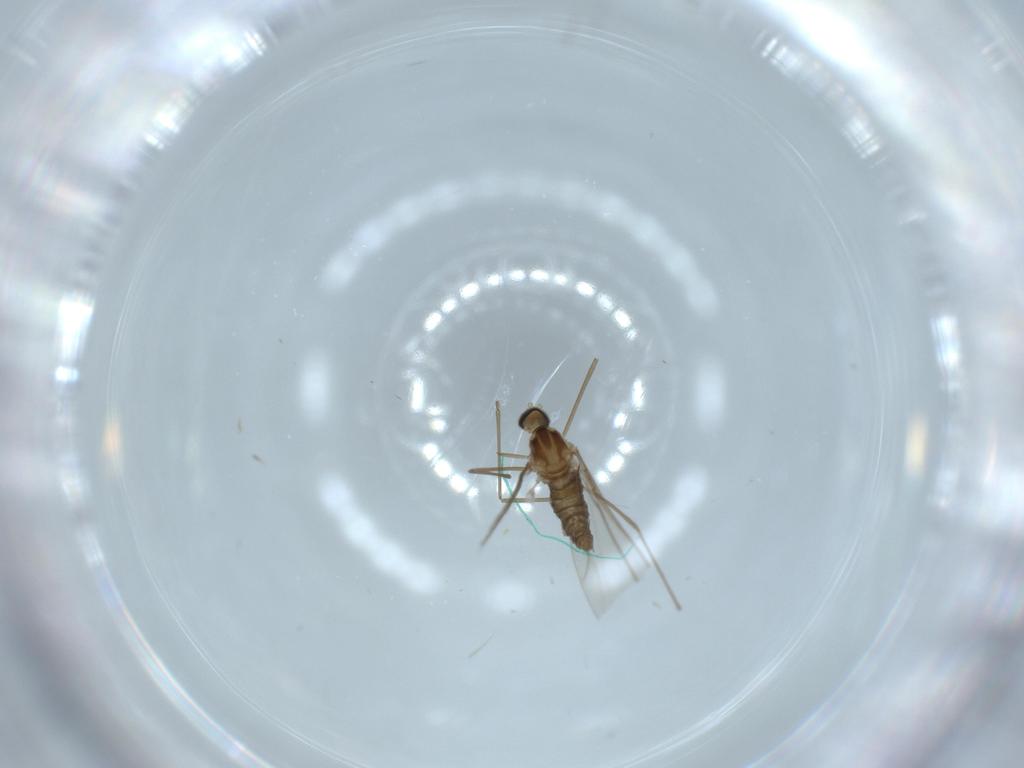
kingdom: Animalia
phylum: Arthropoda
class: Insecta
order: Diptera
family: Cecidomyiidae
